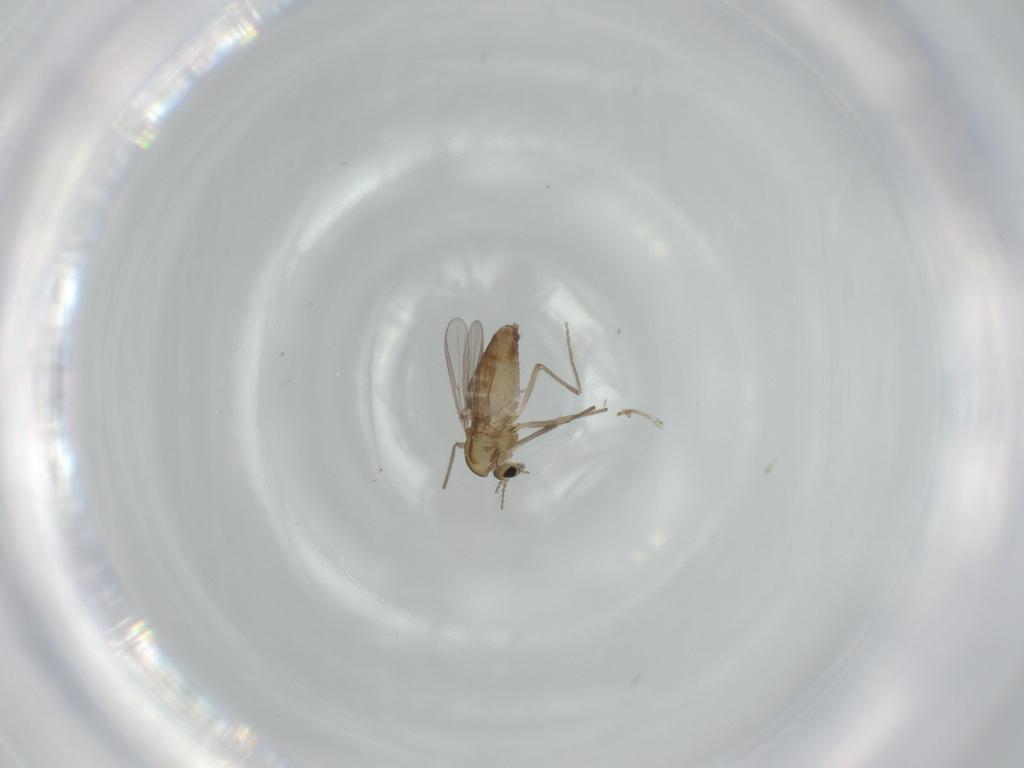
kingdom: Animalia
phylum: Arthropoda
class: Insecta
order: Diptera
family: Chironomidae
